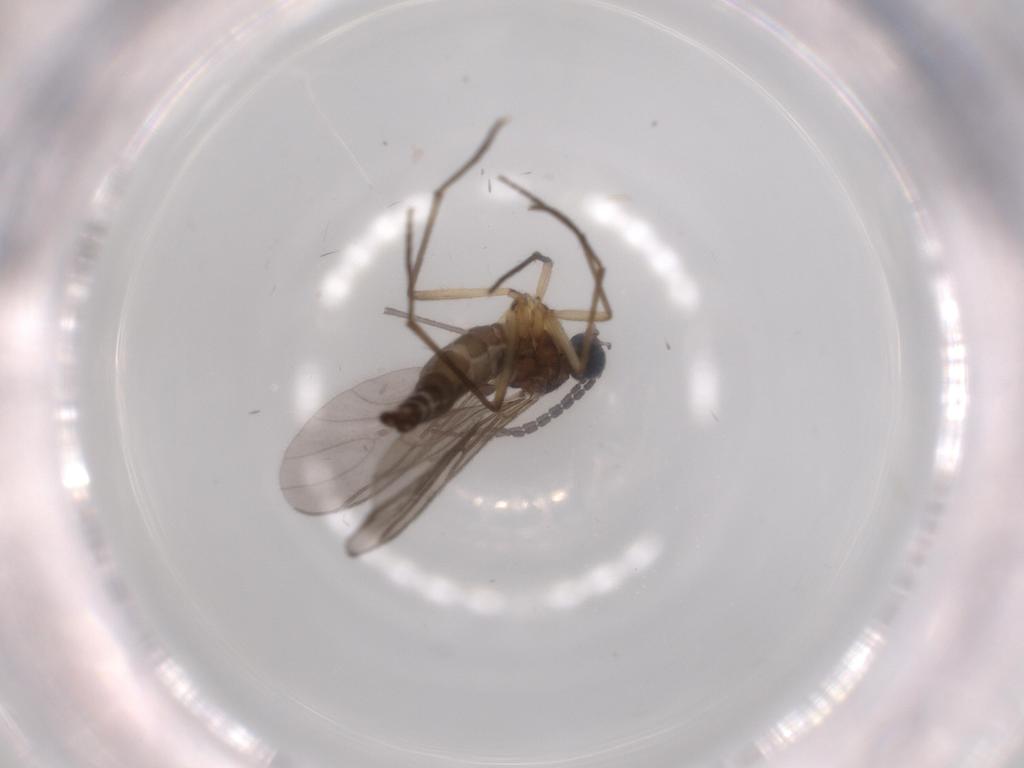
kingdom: Animalia
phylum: Arthropoda
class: Insecta
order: Diptera
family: Sciaridae
